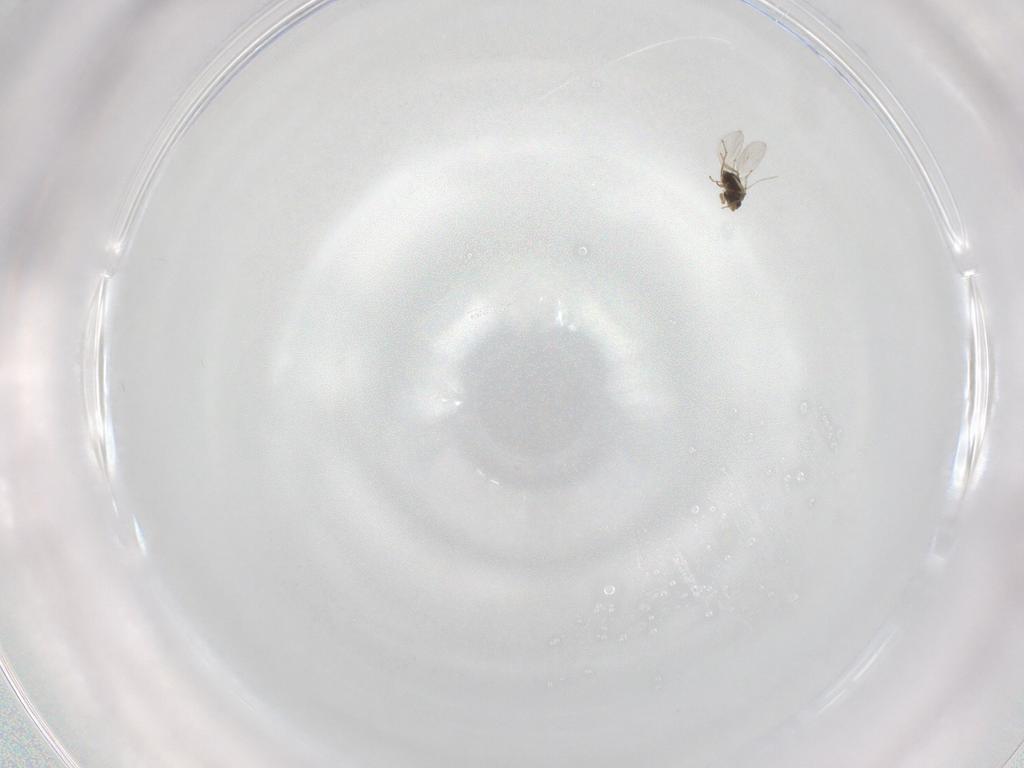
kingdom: Animalia
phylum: Arthropoda
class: Insecta
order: Hymenoptera
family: Encyrtidae
